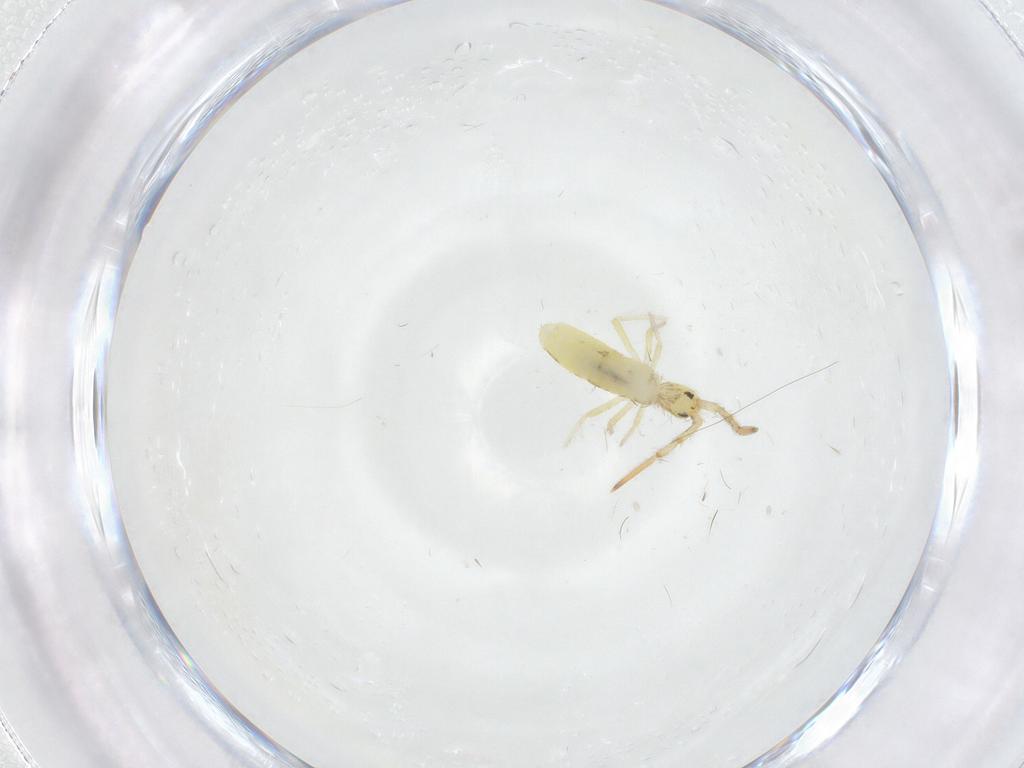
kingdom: Animalia
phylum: Arthropoda
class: Collembola
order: Entomobryomorpha
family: Entomobryidae
